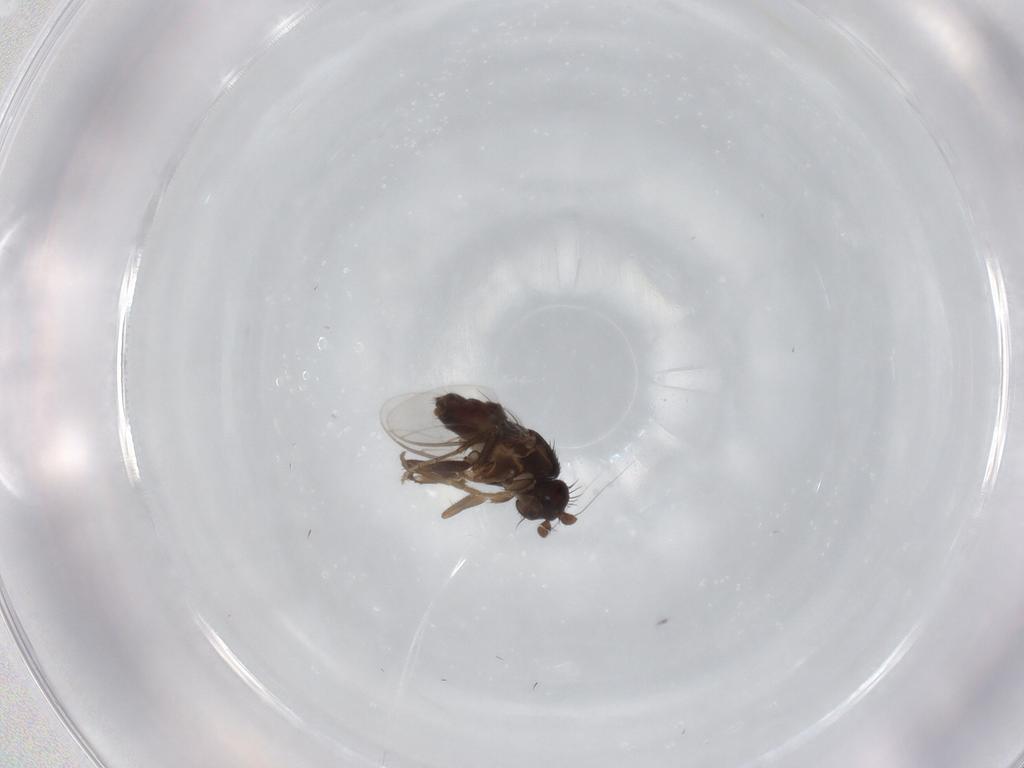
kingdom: Animalia
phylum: Arthropoda
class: Insecta
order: Diptera
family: Sphaeroceridae
